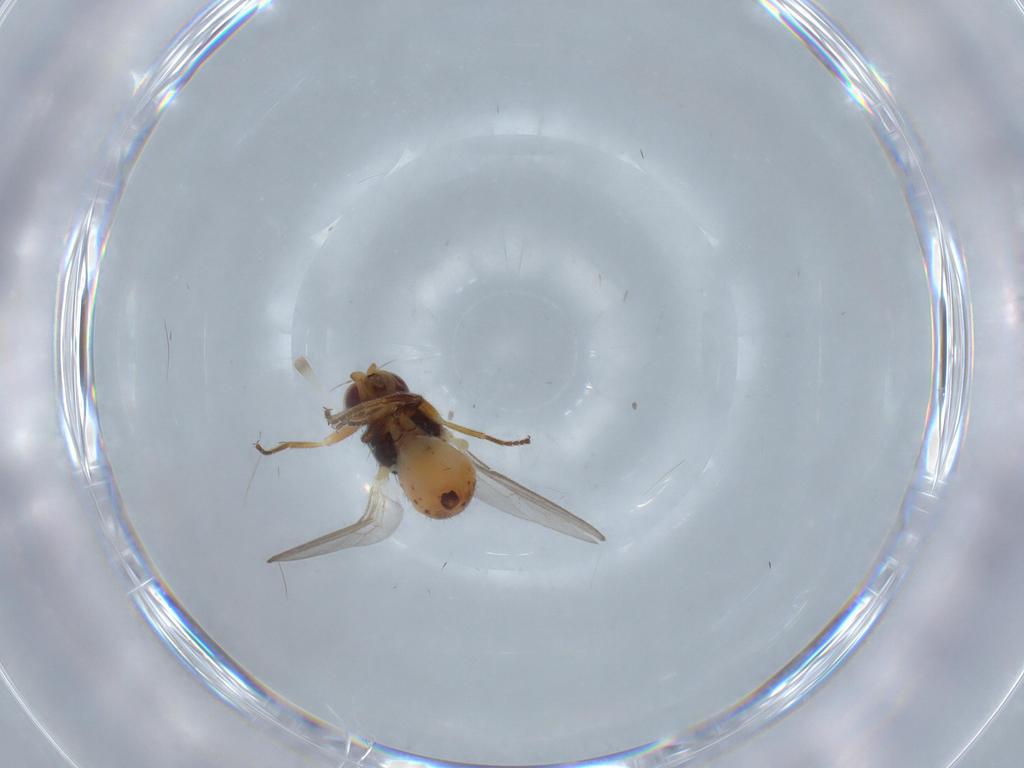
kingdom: Animalia
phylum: Arthropoda
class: Insecta
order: Diptera
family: Chloropidae
